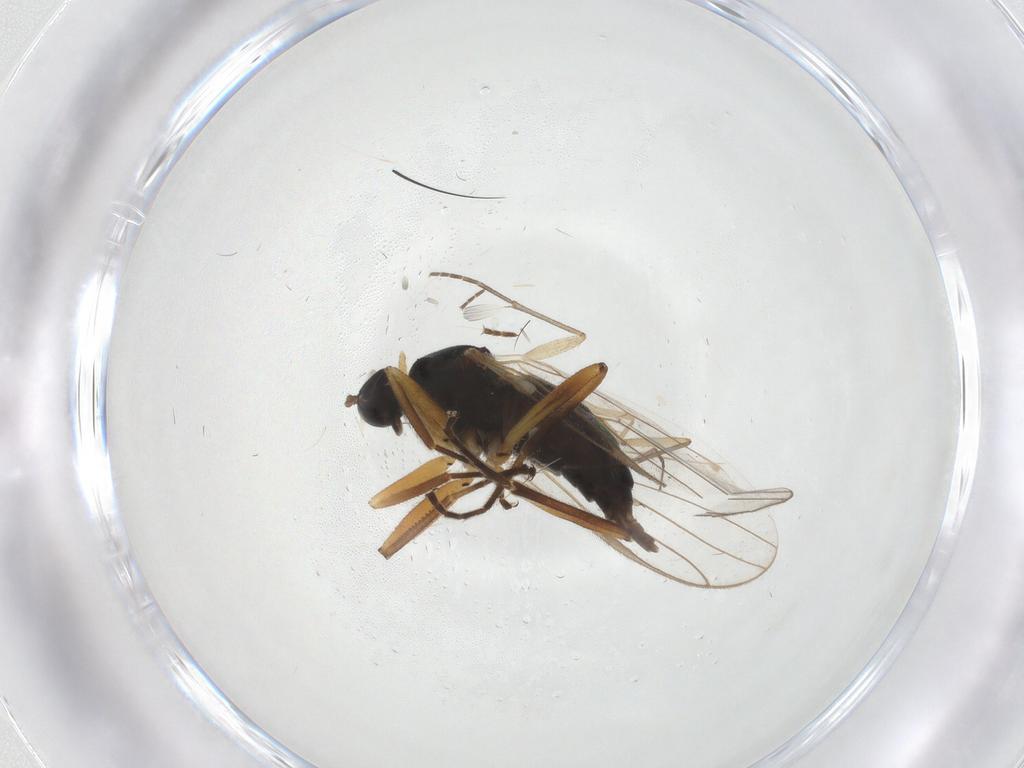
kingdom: Animalia
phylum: Arthropoda
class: Insecta
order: Diptera
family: Hybotidae
